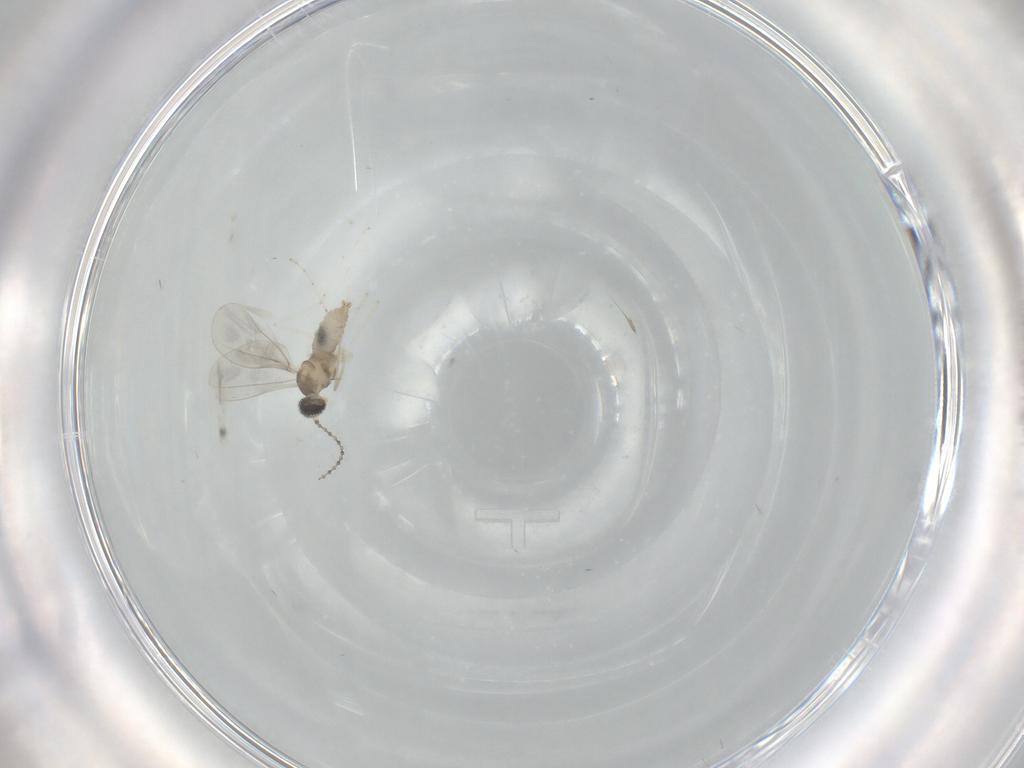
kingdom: Animalia
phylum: Arthropoda
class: Insecta
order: Diptera
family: Cecidomyiidae
